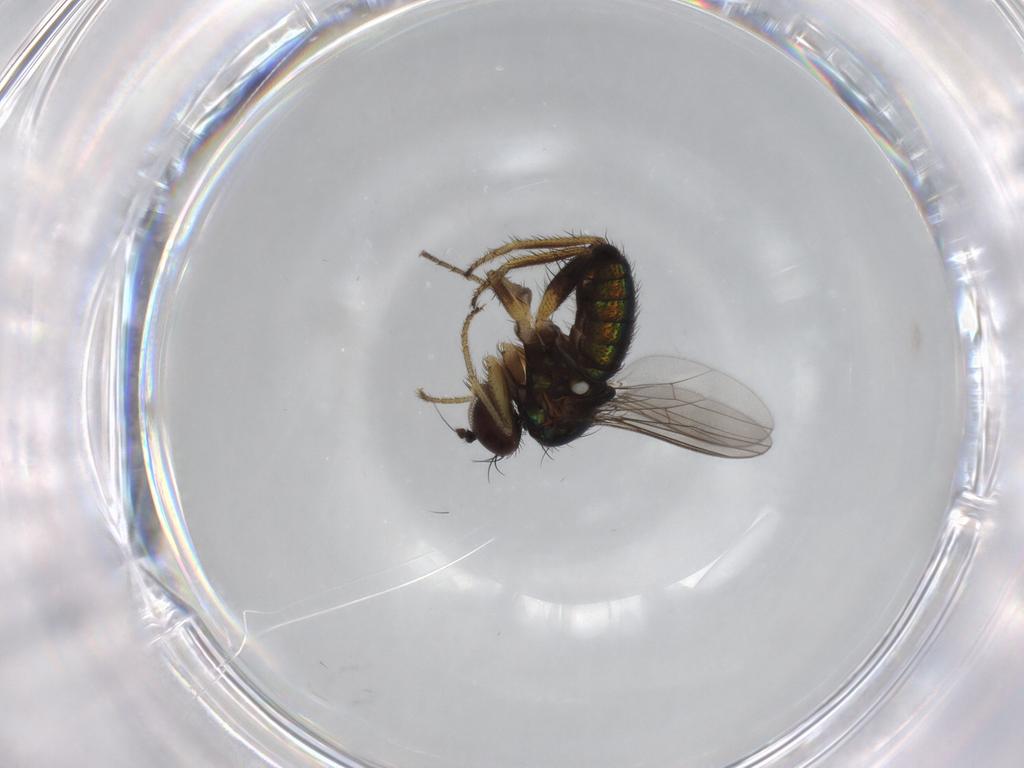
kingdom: Animalia
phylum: Arthropoda
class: Insecta
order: Diptera
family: Dolichopodidae
